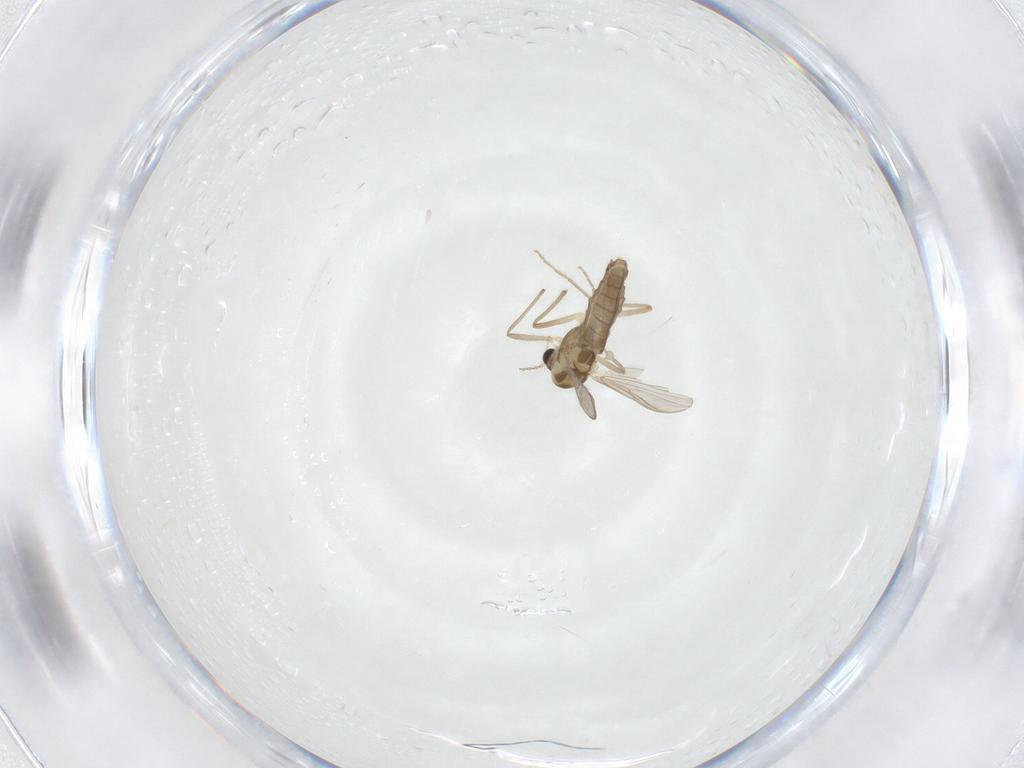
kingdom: Animalia
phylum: Arthropoda
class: Insecta
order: Diptera
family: Chironomidae
